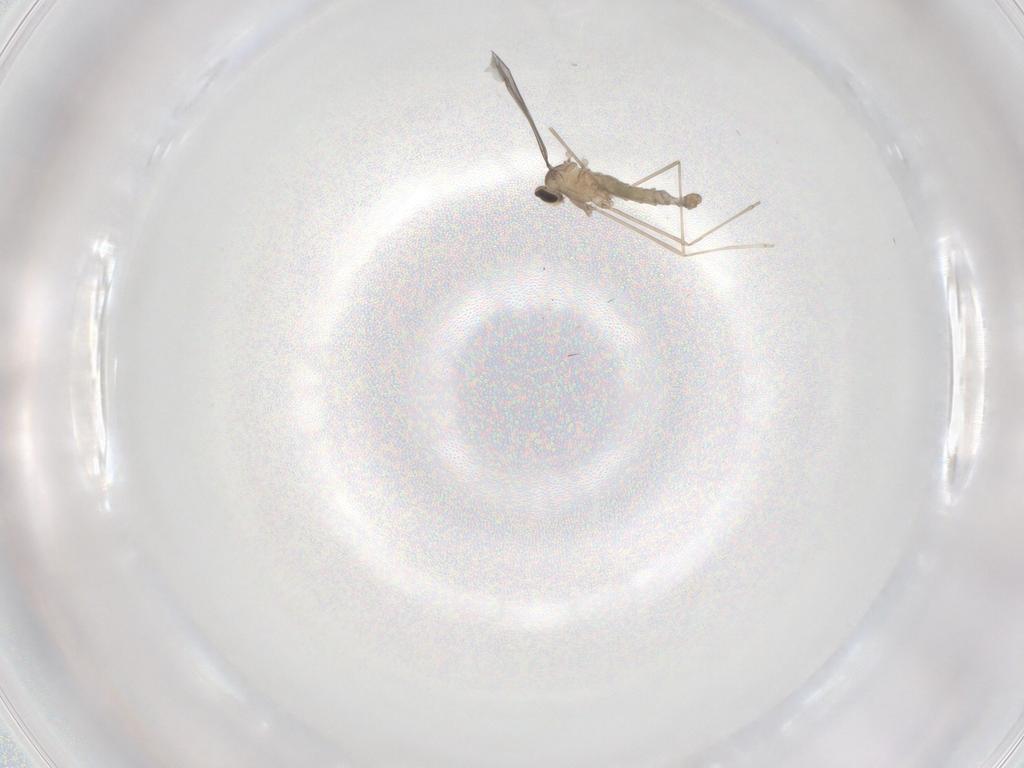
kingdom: Animalia
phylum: Arthropoda
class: Insecta
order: Diptera
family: Cecidomyiidae
